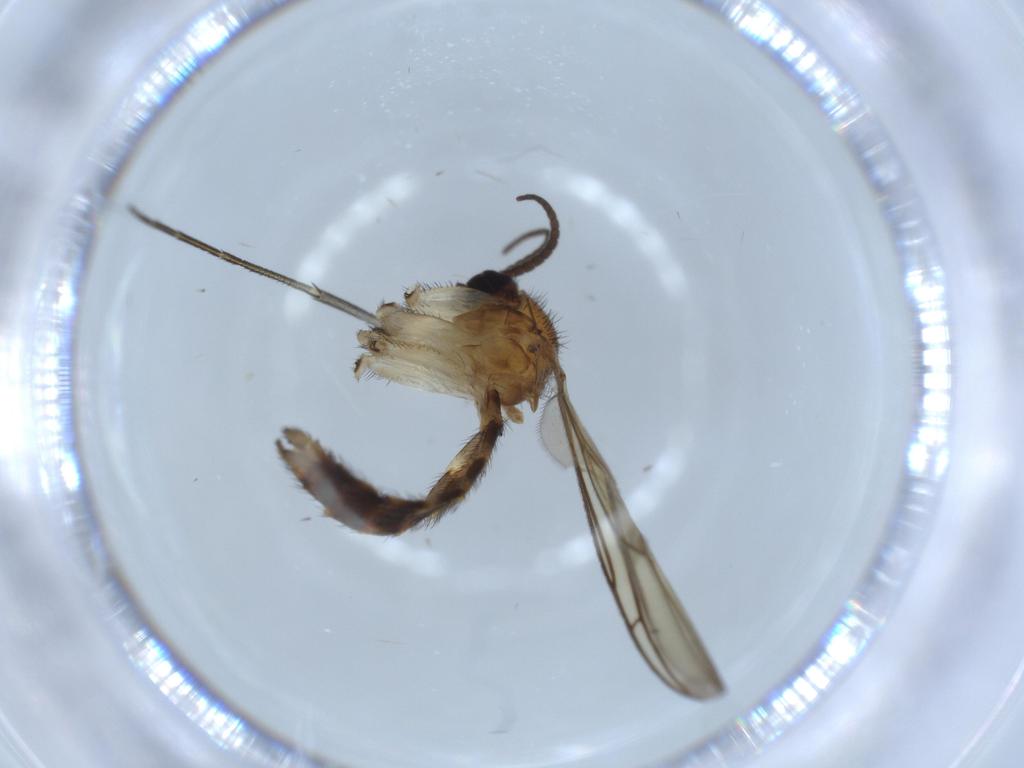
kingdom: Animalia
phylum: Arthropoda
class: Insecta
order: Diptera
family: Keroplatidae
